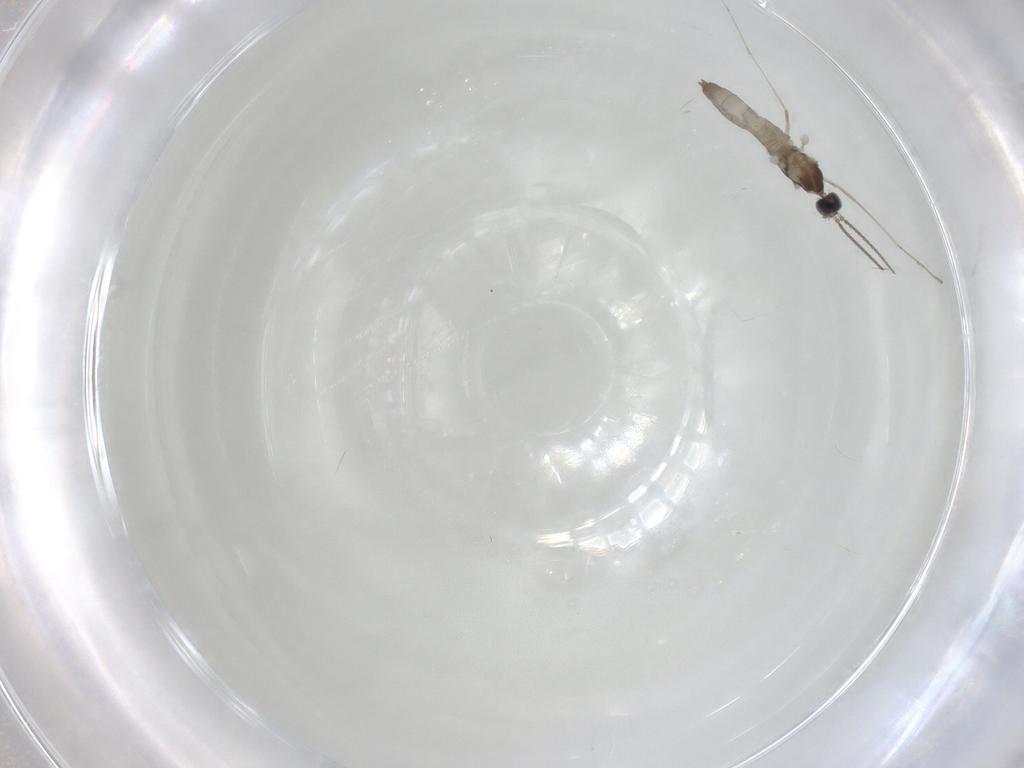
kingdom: Animalia
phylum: Arthropoda
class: Insecta
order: Diptera
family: Cecidomyiidae
